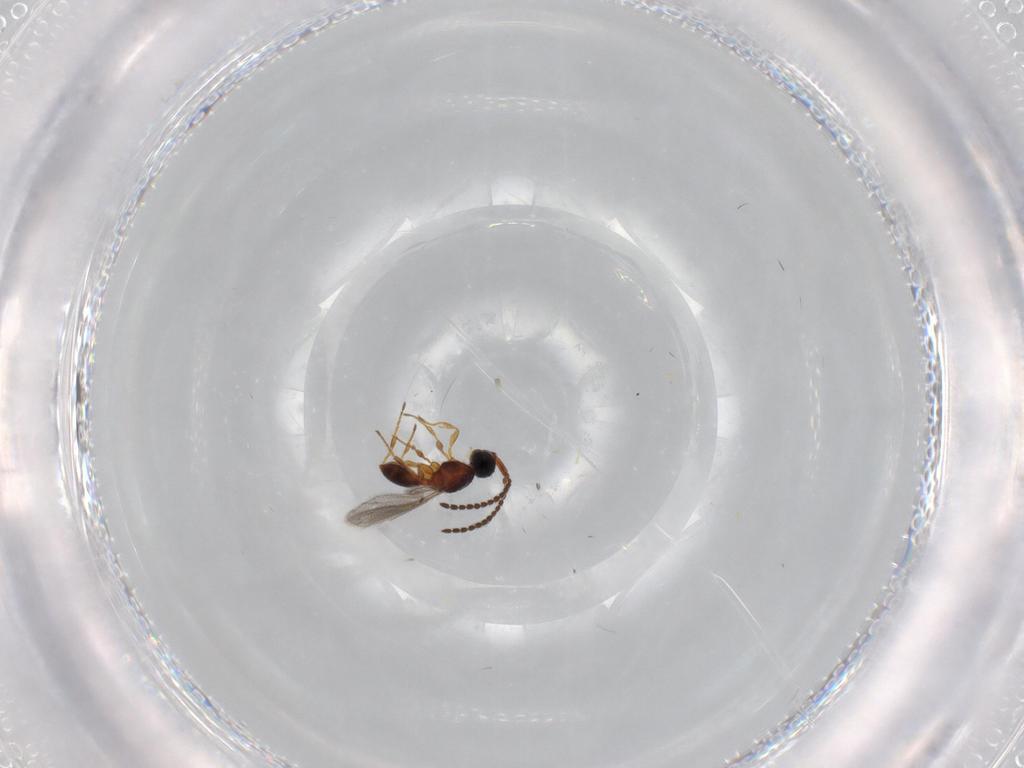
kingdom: Animalia
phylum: Arthropoda
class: Insecta
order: Hymenoptera
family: Diapriidae
